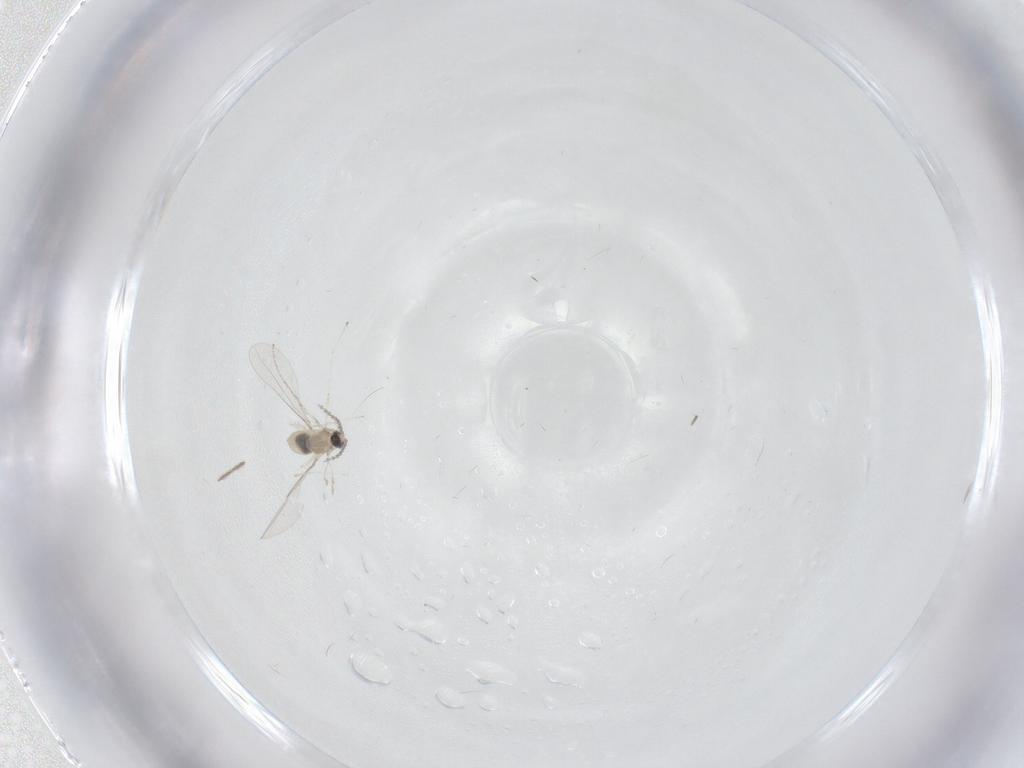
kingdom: Animalia
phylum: Arthropoda
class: Insecta
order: Diptera
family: Cecidomyiidae
